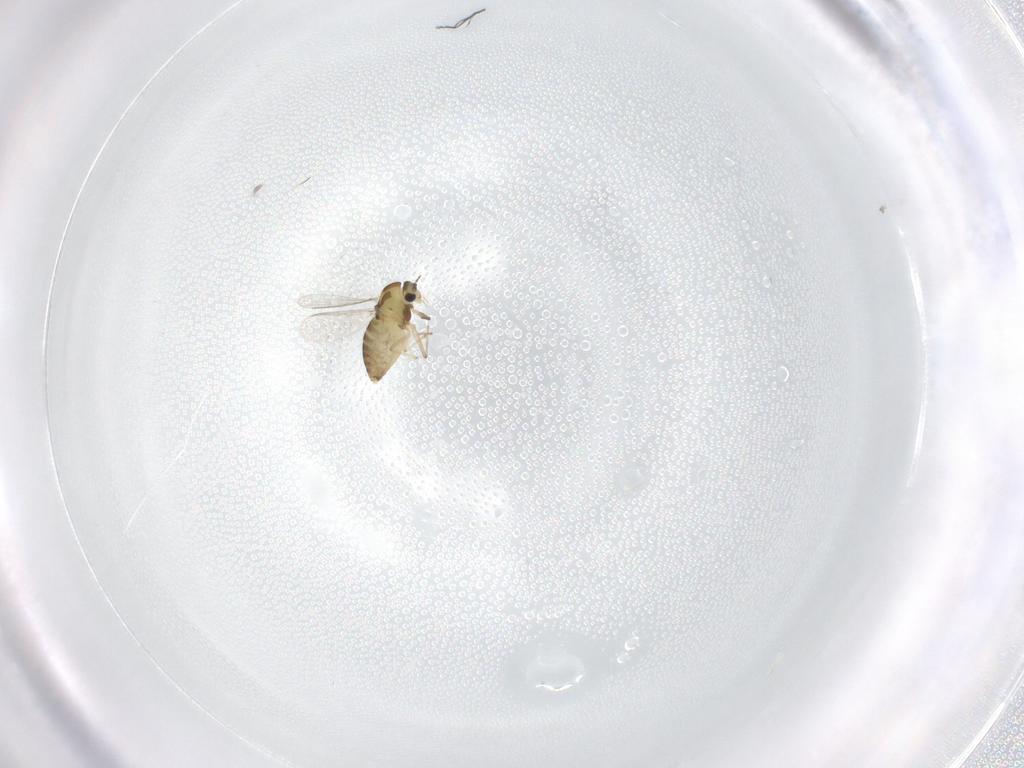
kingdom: Animalia
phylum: Arthropoda
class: Insecta
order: Diptera
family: Chironomidae
